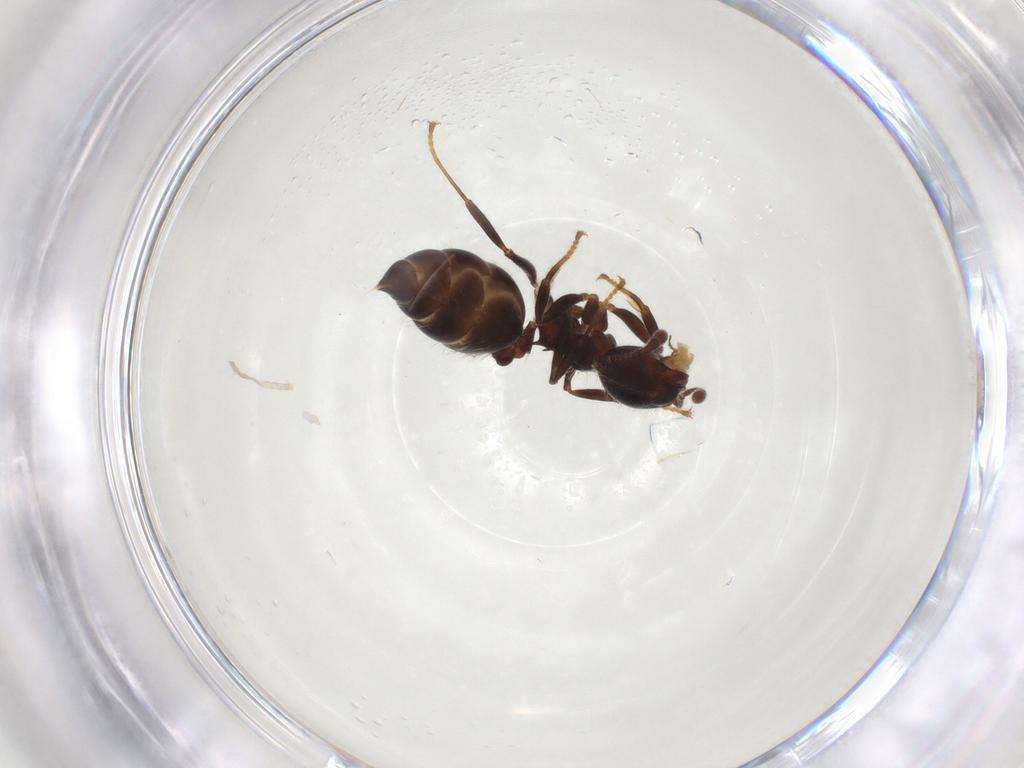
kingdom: Animalia
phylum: Arthropoda
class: Insecta
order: Hymenoptera
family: Formicidae
